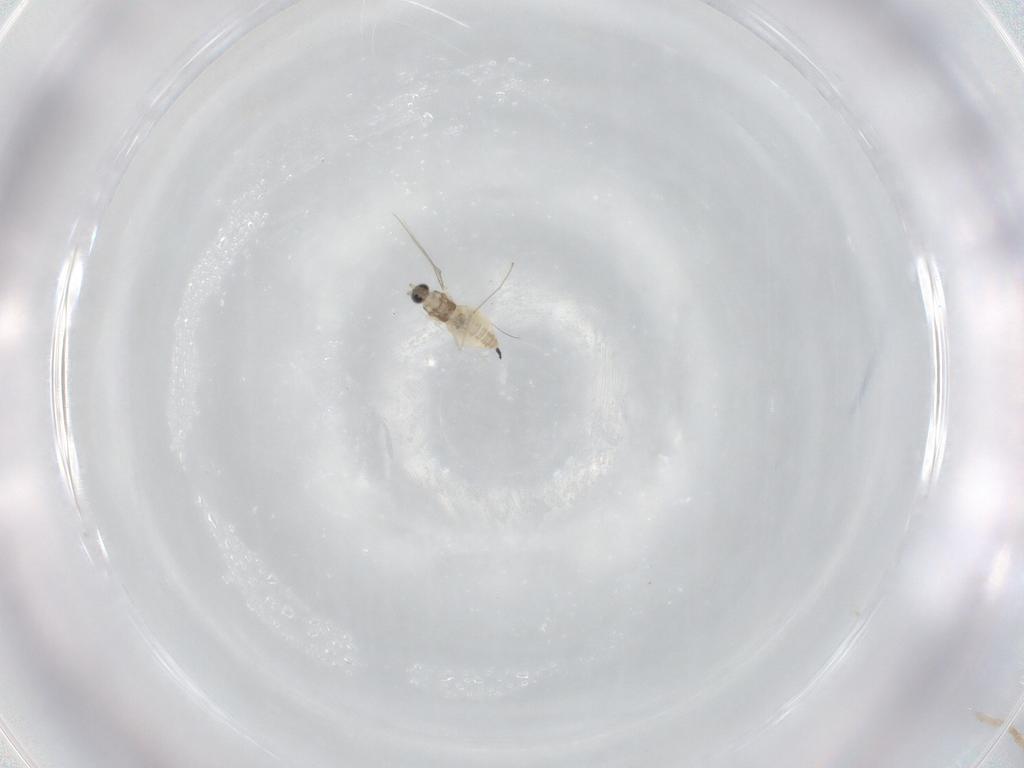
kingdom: Animalia
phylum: Arthropoda
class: Insecta
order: Diptera
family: Cecidomyiidae
